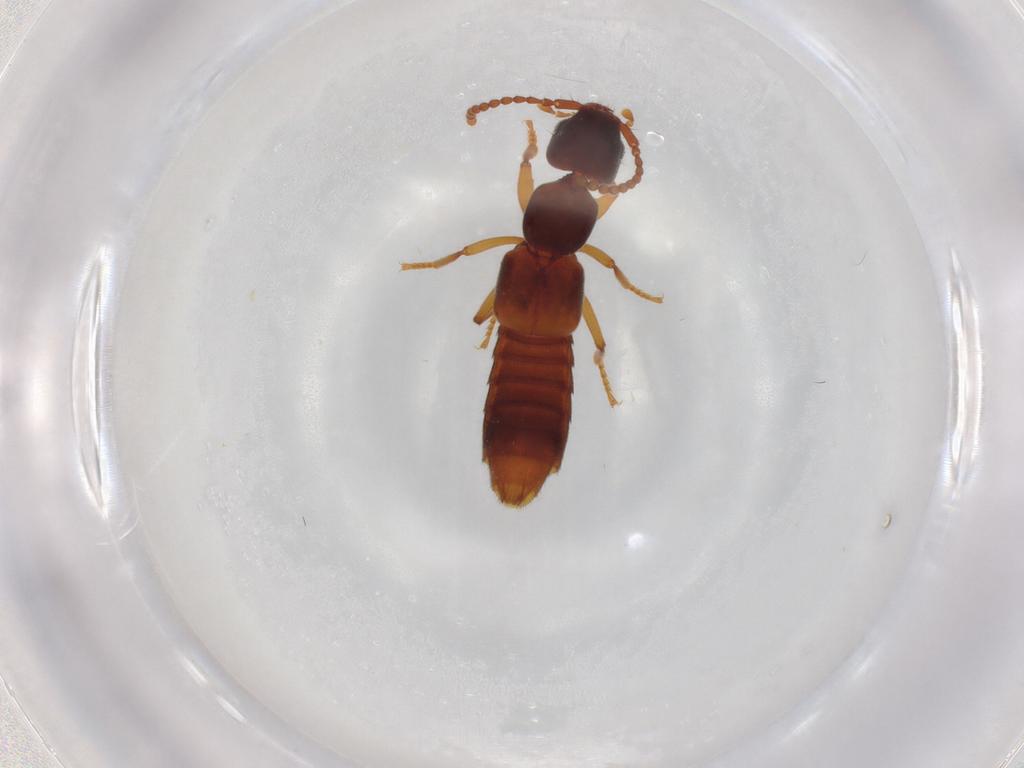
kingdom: Animalia
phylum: Arthropoda
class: Insecta
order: Coleoptera
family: Staphylinidae
